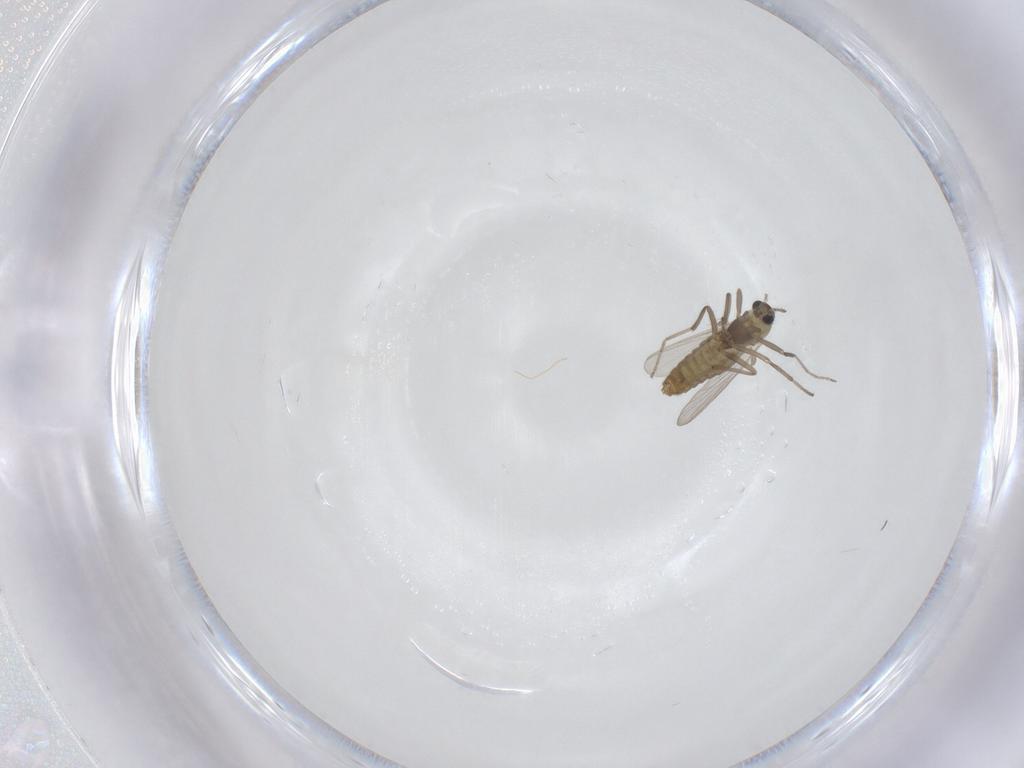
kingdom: Animalia
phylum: Arthropoda
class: Insecta
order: Diptera
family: Chironomidae
